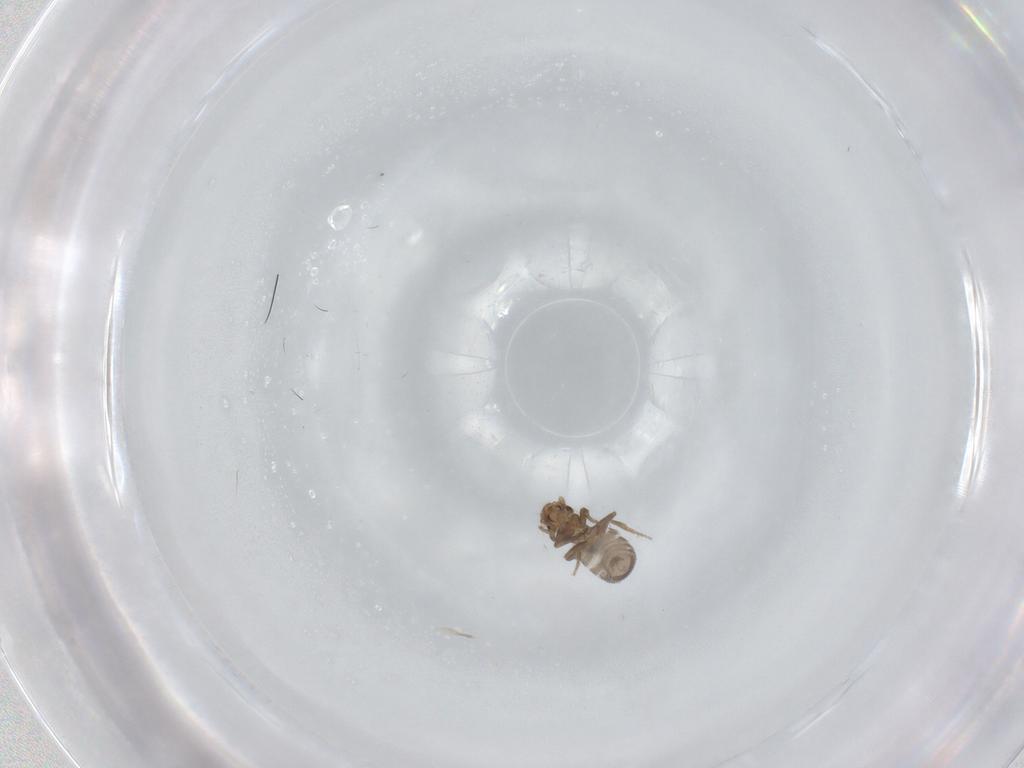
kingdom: Animalia
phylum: Arthropoda
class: Insecta
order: Diptera
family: Cecidomyiidae
